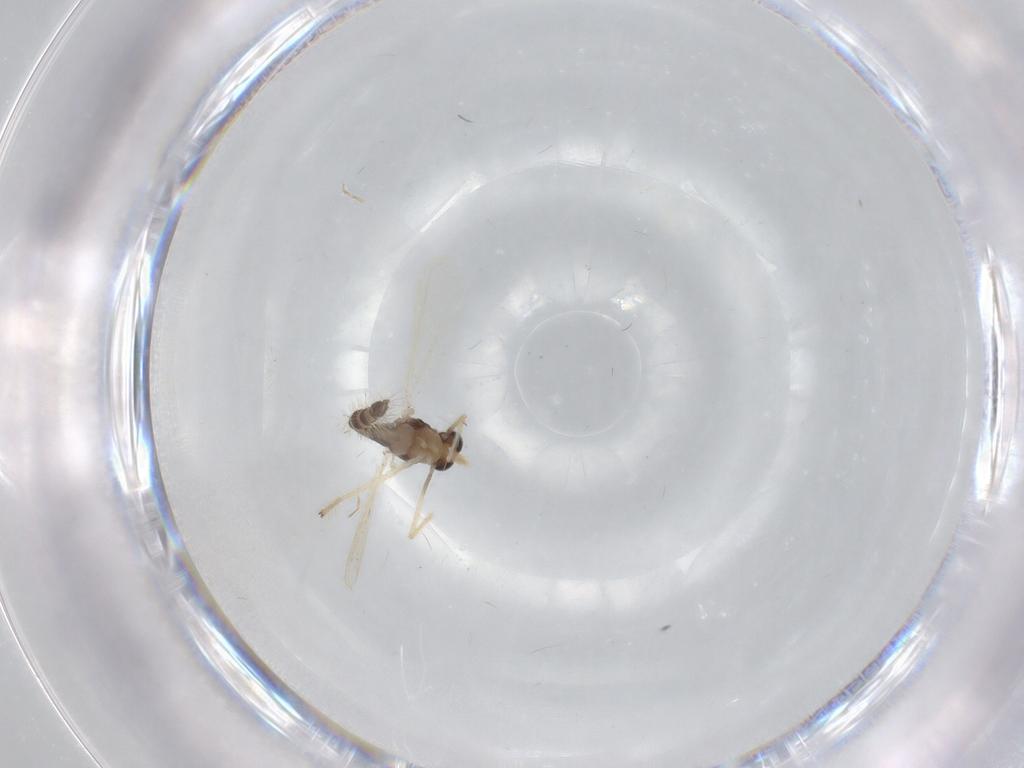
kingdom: Animalia
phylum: Arthropoda
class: Insecta
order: Diptera
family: Chironomidae
